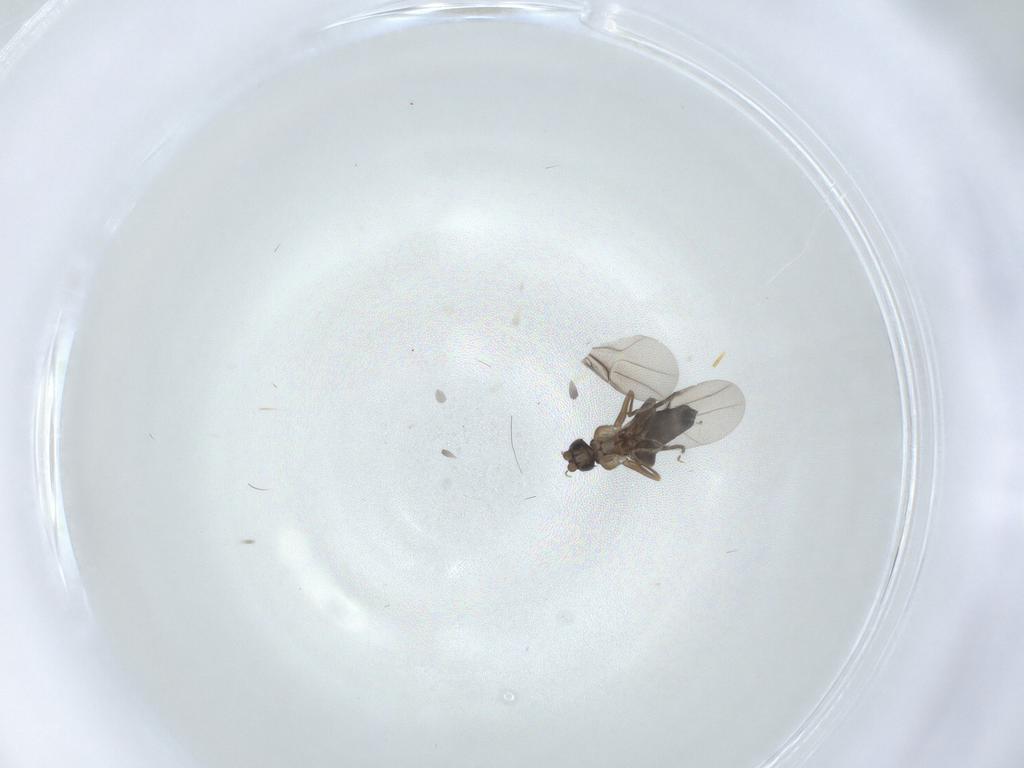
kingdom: Animalia
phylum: Arthropoda
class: Insecta
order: Diptera
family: Phoridae
